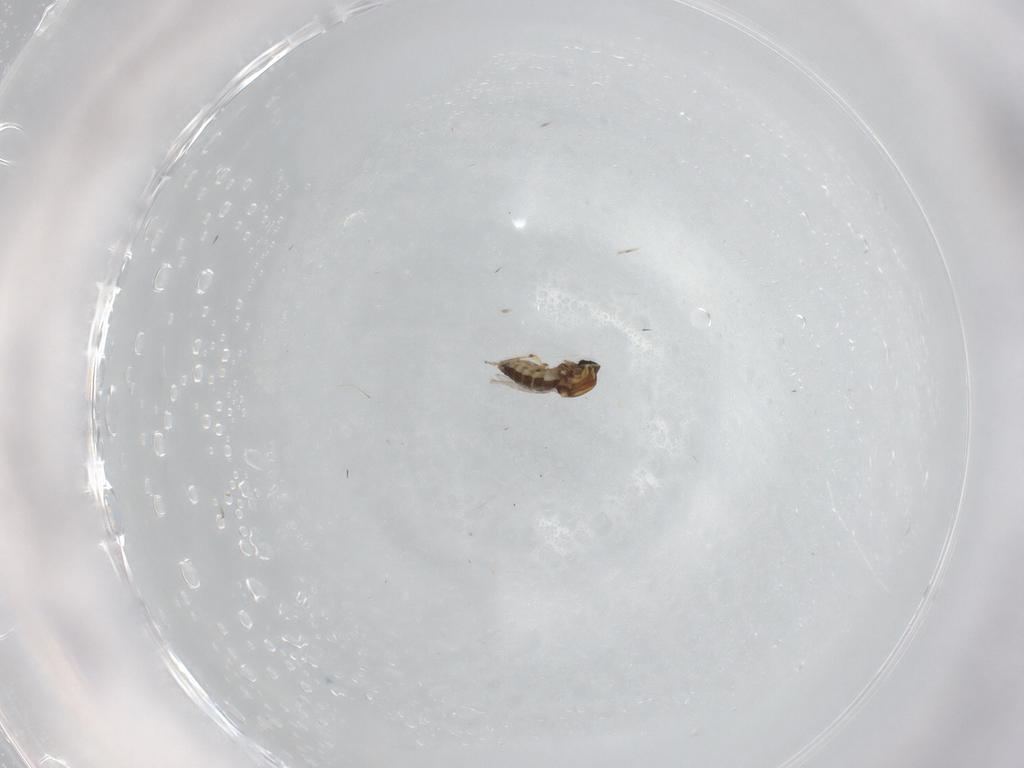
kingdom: Animalia
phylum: Arthropoda
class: Insecta
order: Diptera
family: Ceratopogonidae
